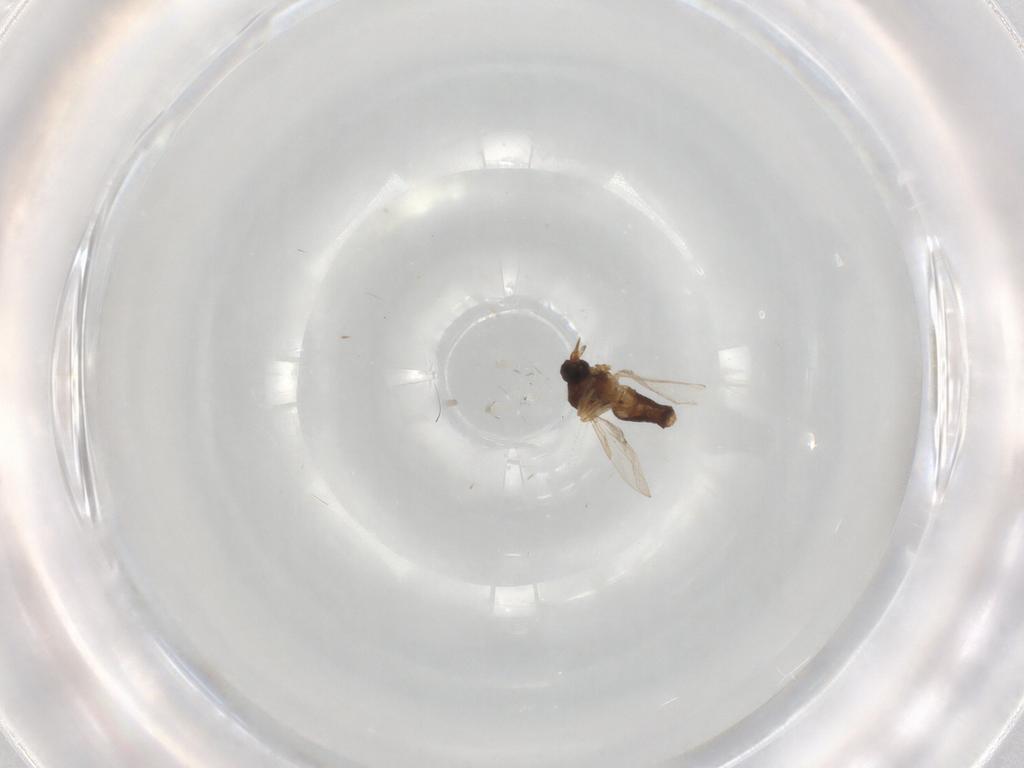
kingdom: Animalia
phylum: Arthropoda
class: Insecta
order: Diptera
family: Ceratopogonidae
